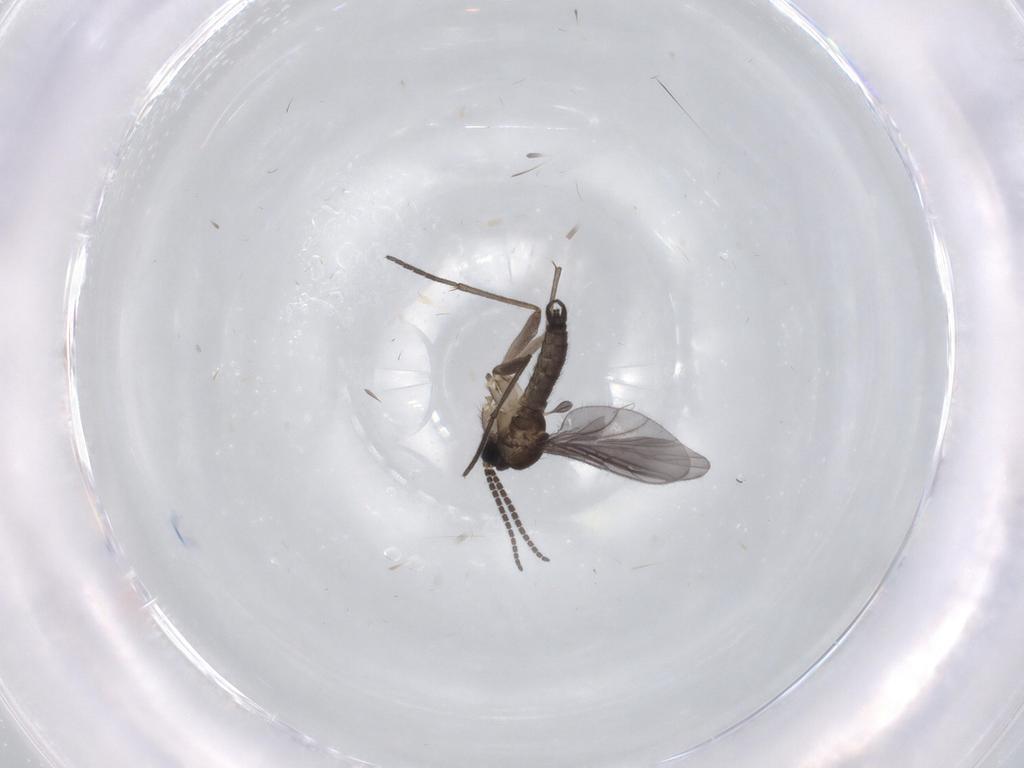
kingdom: Animalia
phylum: Arthropoda
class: Insecta
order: Diptera
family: Sciaridae
